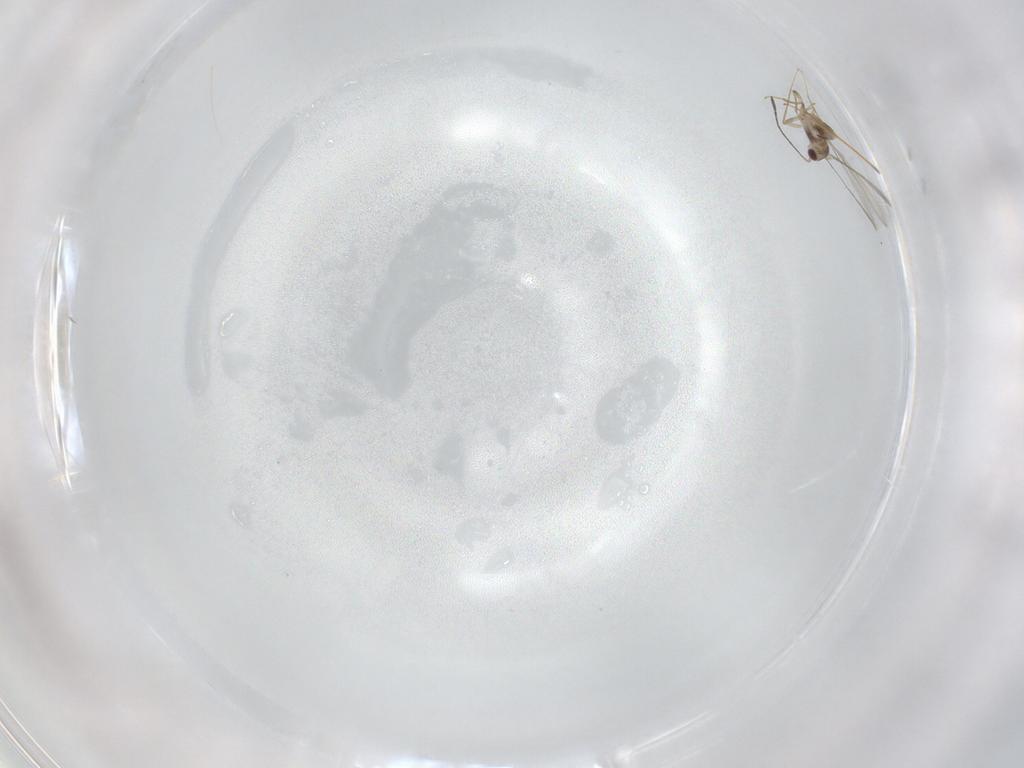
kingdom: Animalia
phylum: Arthropoda
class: Insecta
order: Hymenoptera
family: Mymaridae
